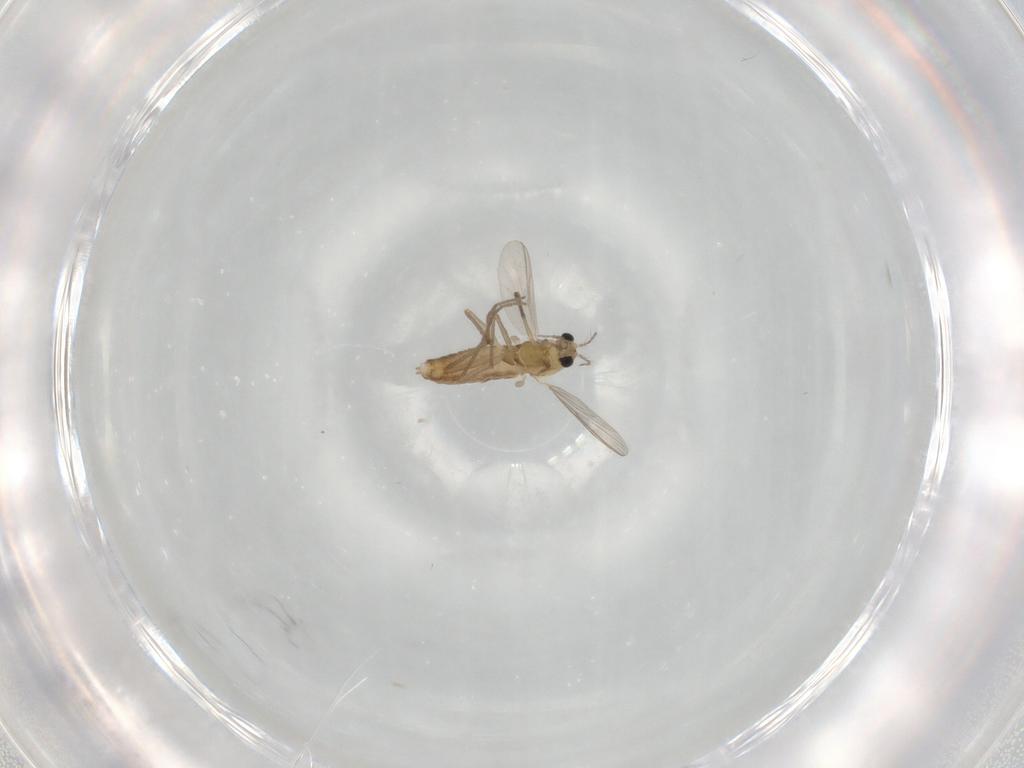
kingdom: Animalia
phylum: Arthropoda
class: Insecta
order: Diptera
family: Chironomidae
